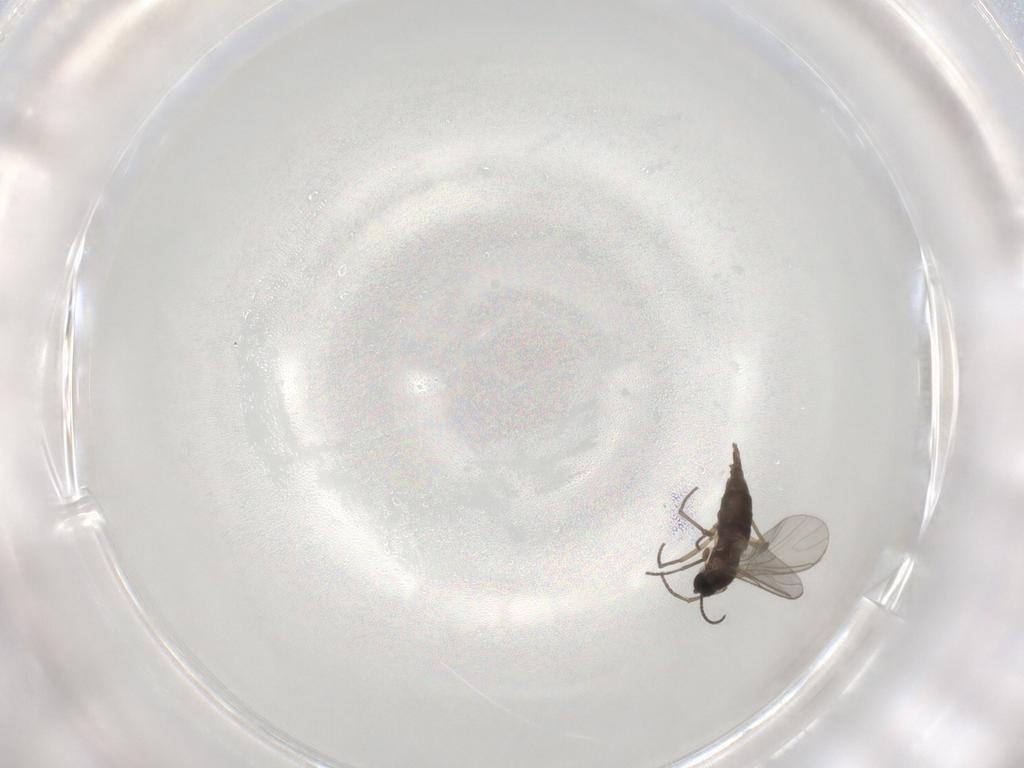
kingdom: Animalia
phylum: Arthropoda
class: Insecta
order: Diptera
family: Sciaridae
